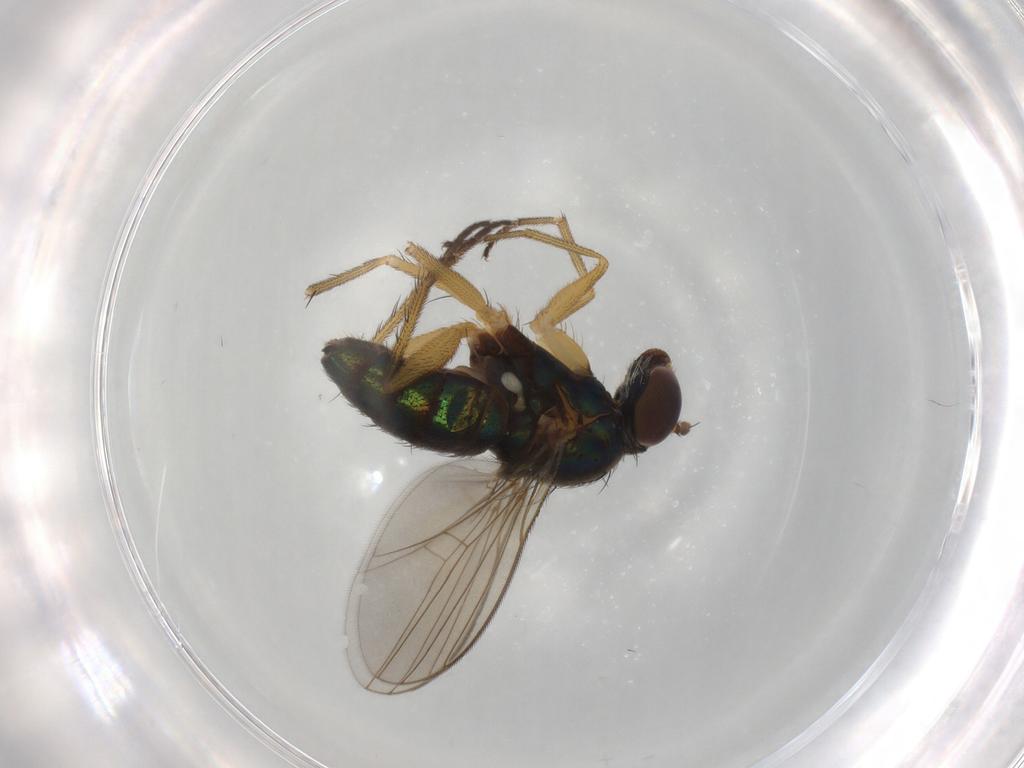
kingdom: Animalia
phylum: Arthropoda
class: Insecta
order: Diptera
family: Dolichopodidae
